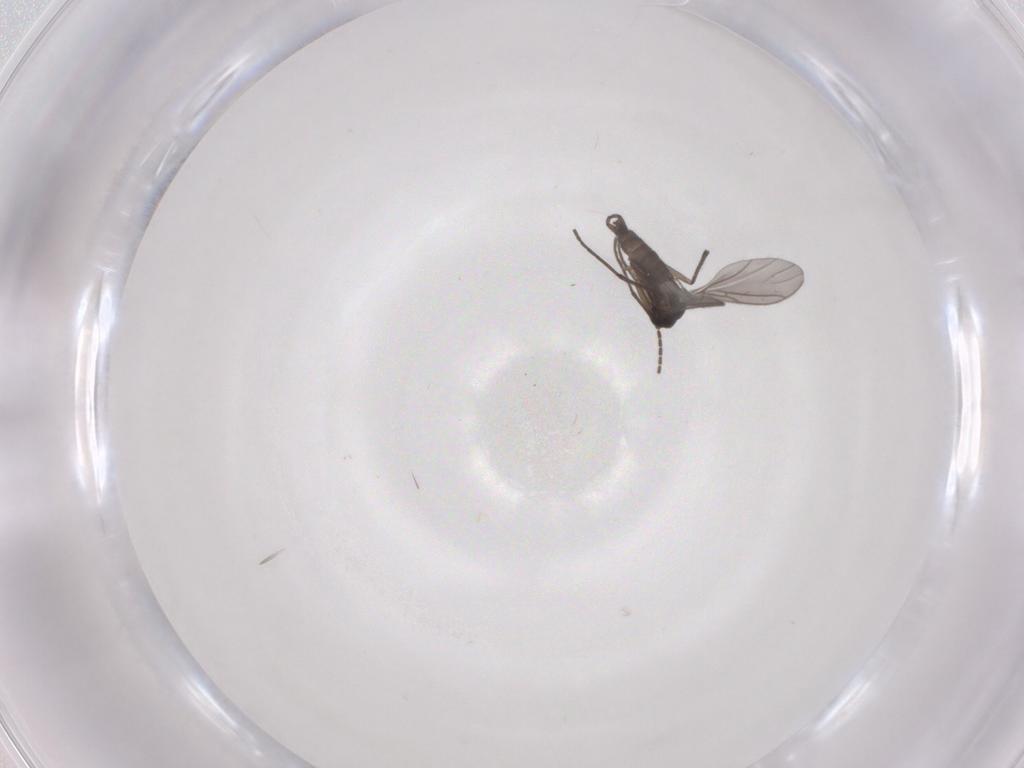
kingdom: Animalia
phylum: Arthropoda
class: Insecta
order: Diptera
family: Sciaridae
